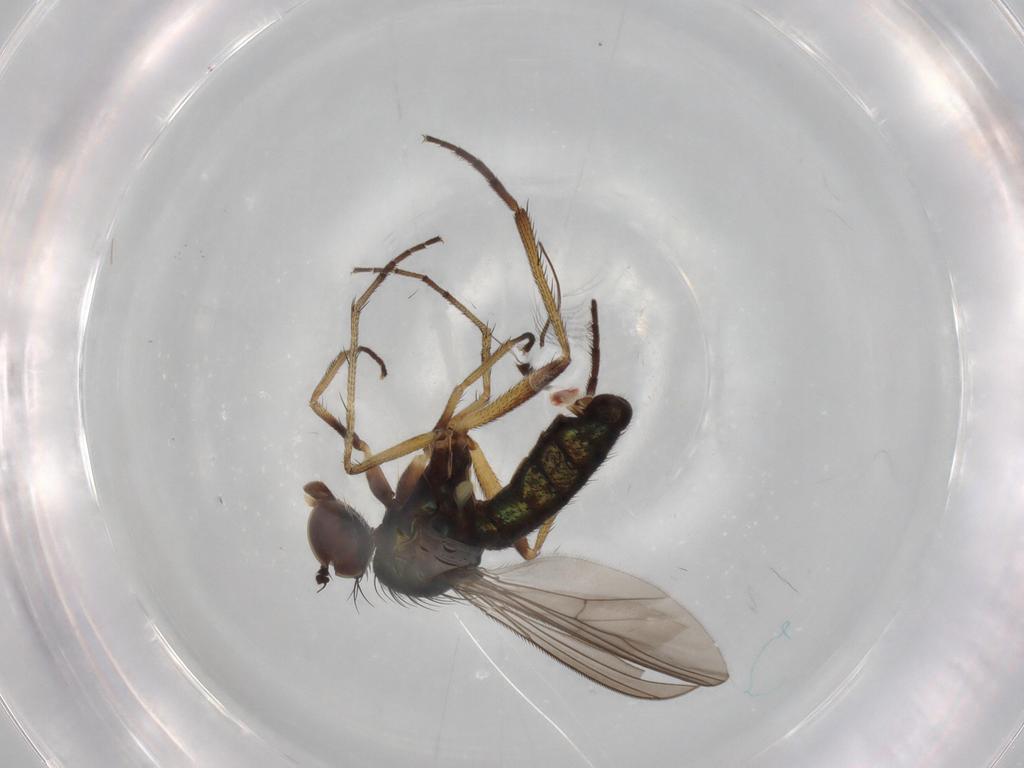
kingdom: Animalia
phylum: Arthropoda
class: Insecta
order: Diptera
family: Dolichopodidae
